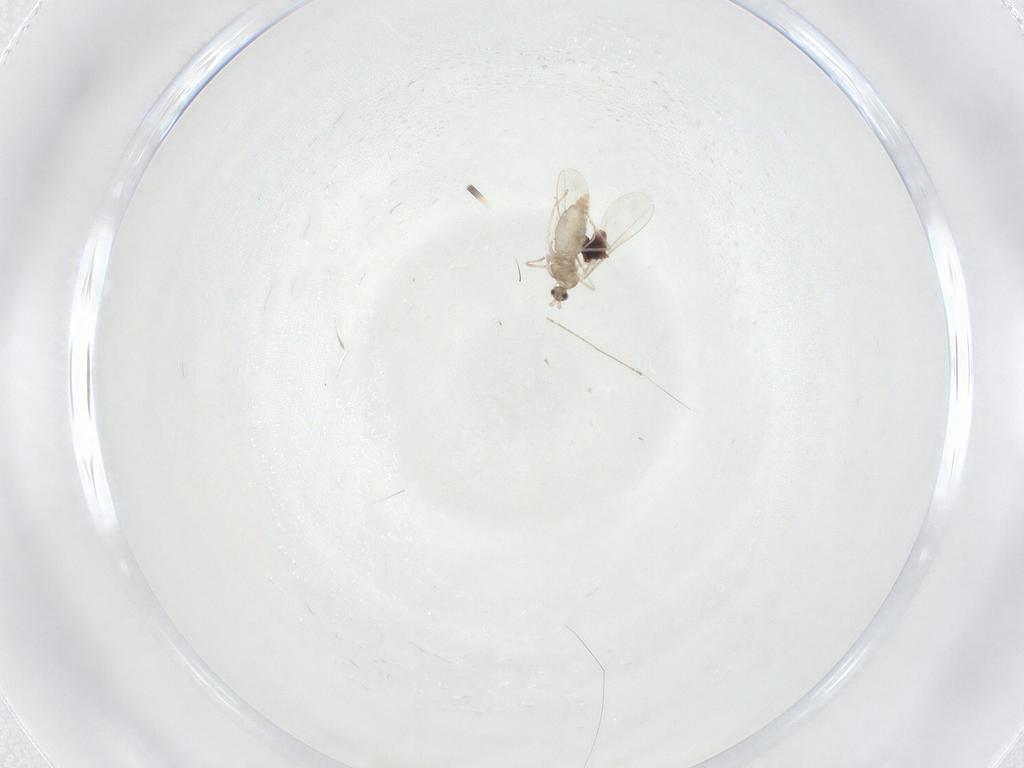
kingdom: Animalia
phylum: Arthropoda
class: Insecta
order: Diptera
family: Cecidomyiidae
